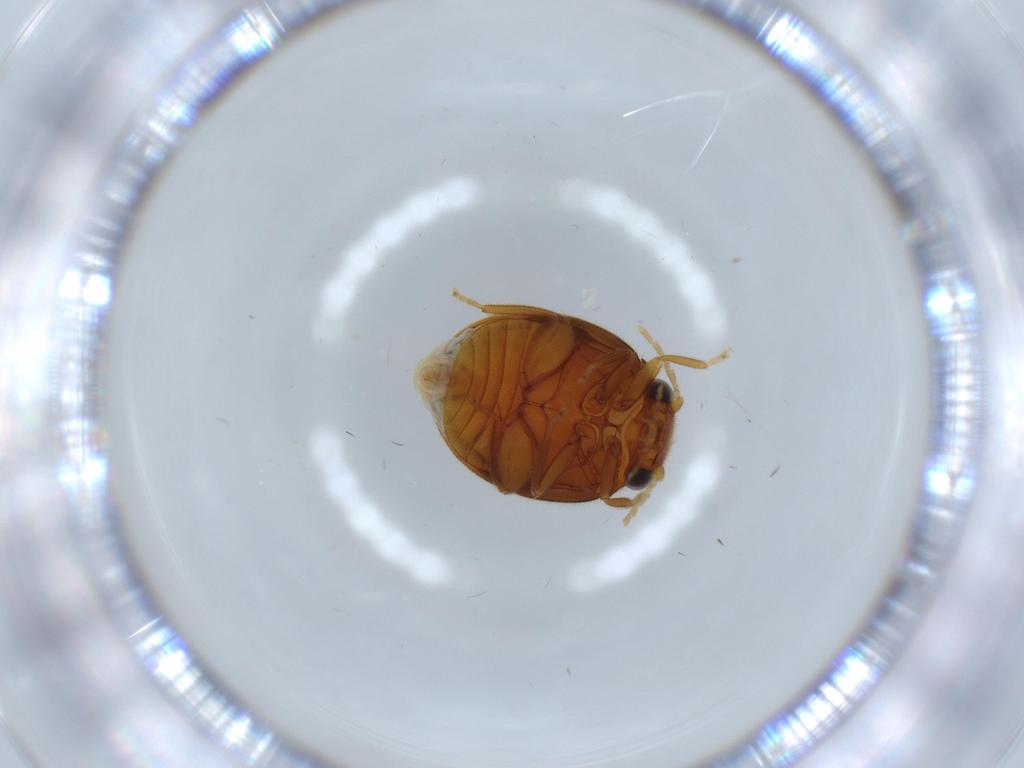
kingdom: Animalia
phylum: Arthropoda
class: Insecta
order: Coleoptera
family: Scirtidae
